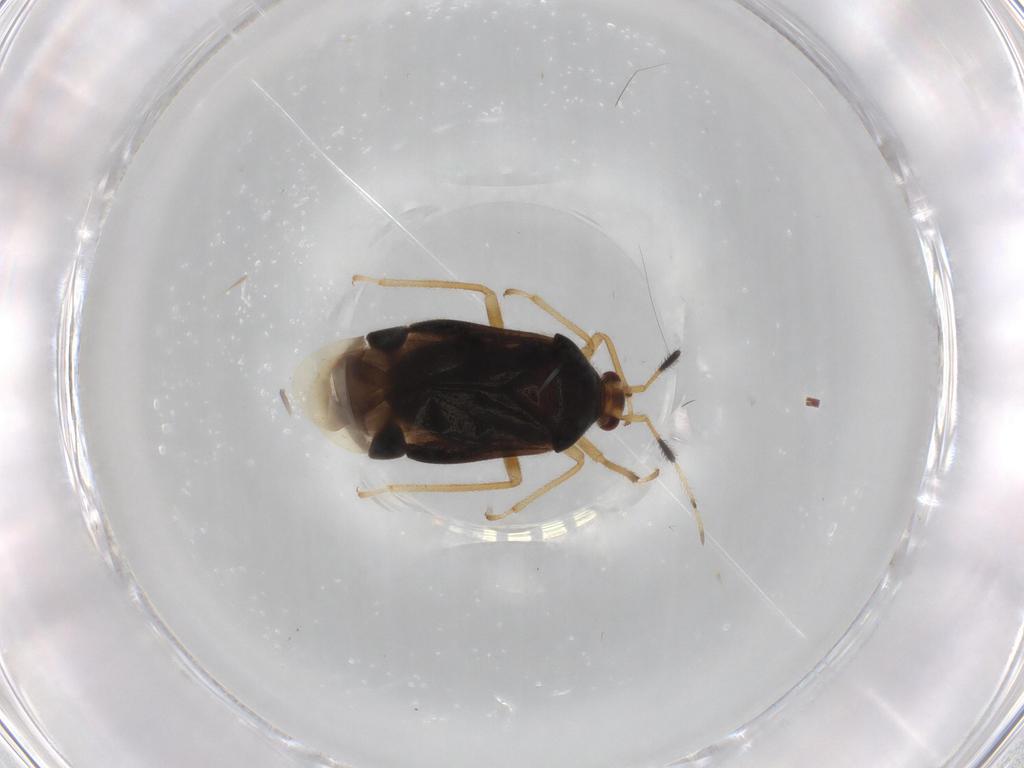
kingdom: Animalia
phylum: Arthropoda
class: Insecta
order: Hemiptera
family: Miridae
